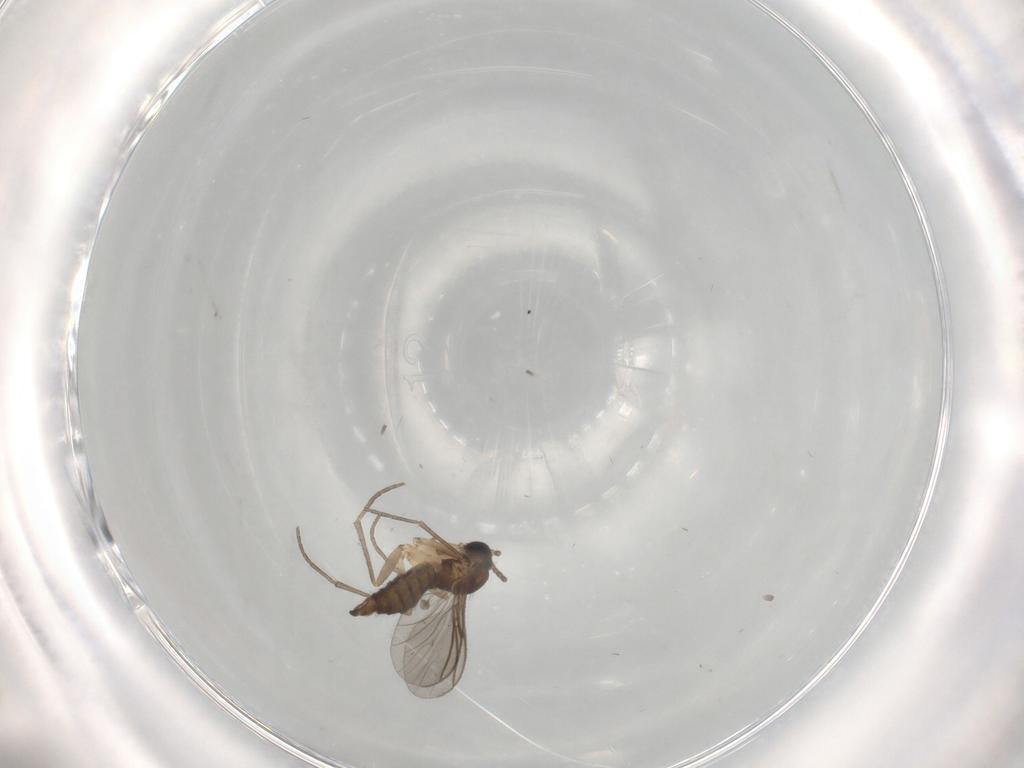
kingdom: Animalia
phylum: Arthropoda
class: Insecta
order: Diptera
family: Sciaridae
